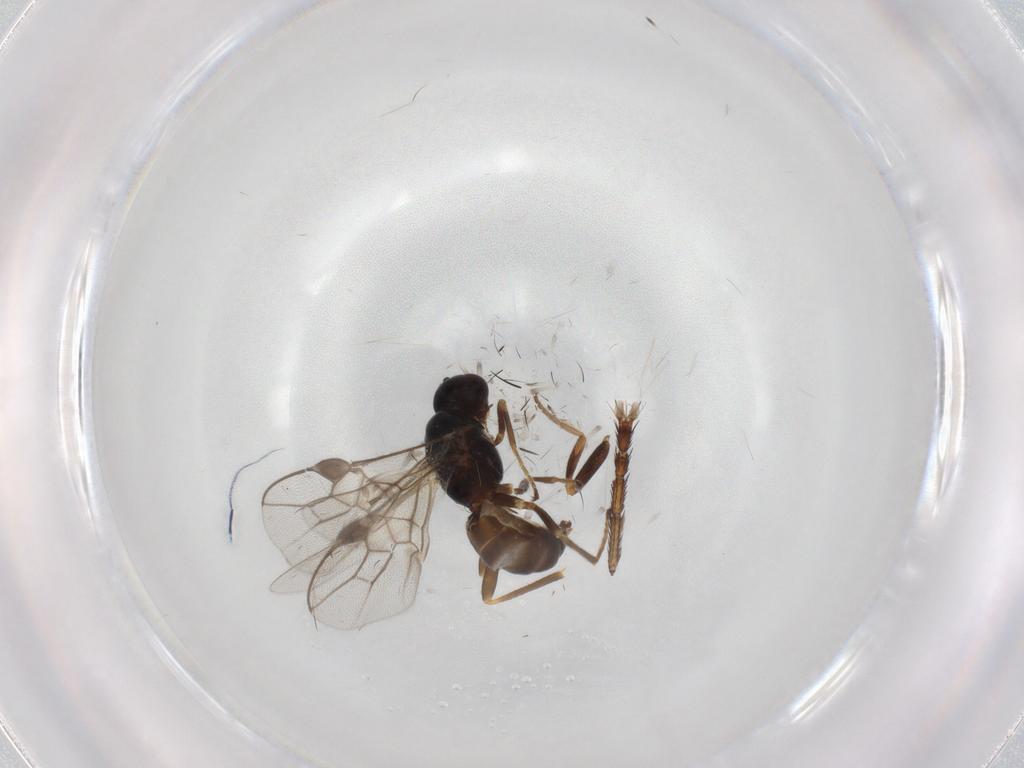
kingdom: Animalia
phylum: Arthropoda
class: Insecta
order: Hymenoptera
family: Braconidae
